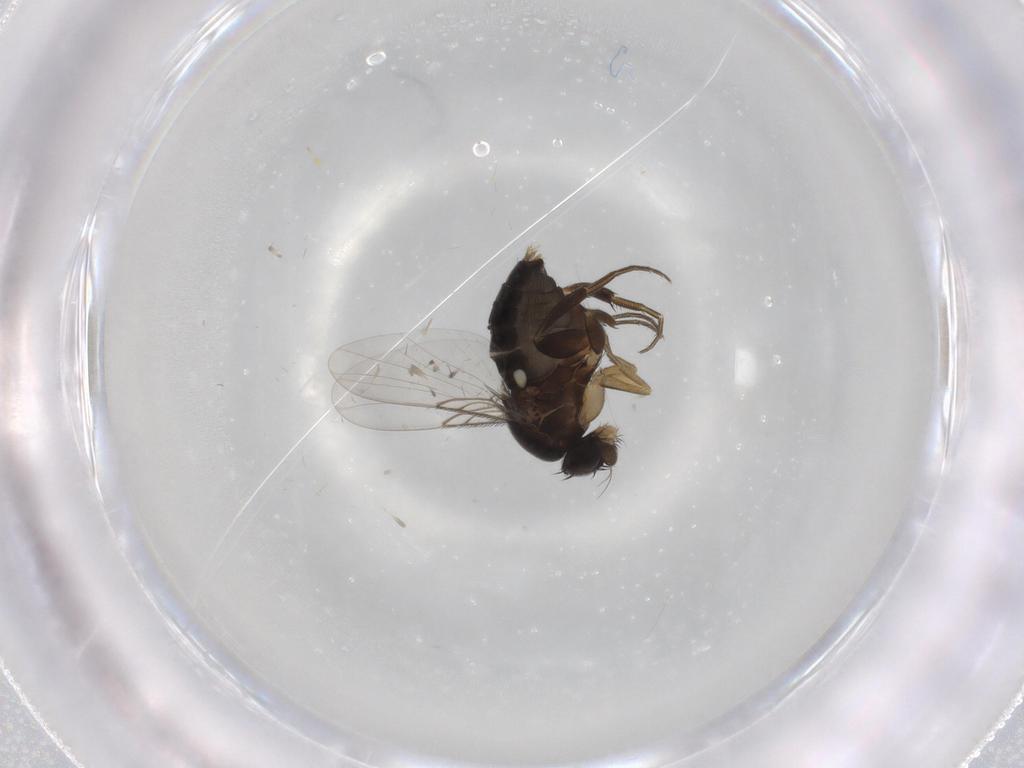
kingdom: Animalia
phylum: Arthropoda
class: Insecta
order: Diptera
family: Phoridae
